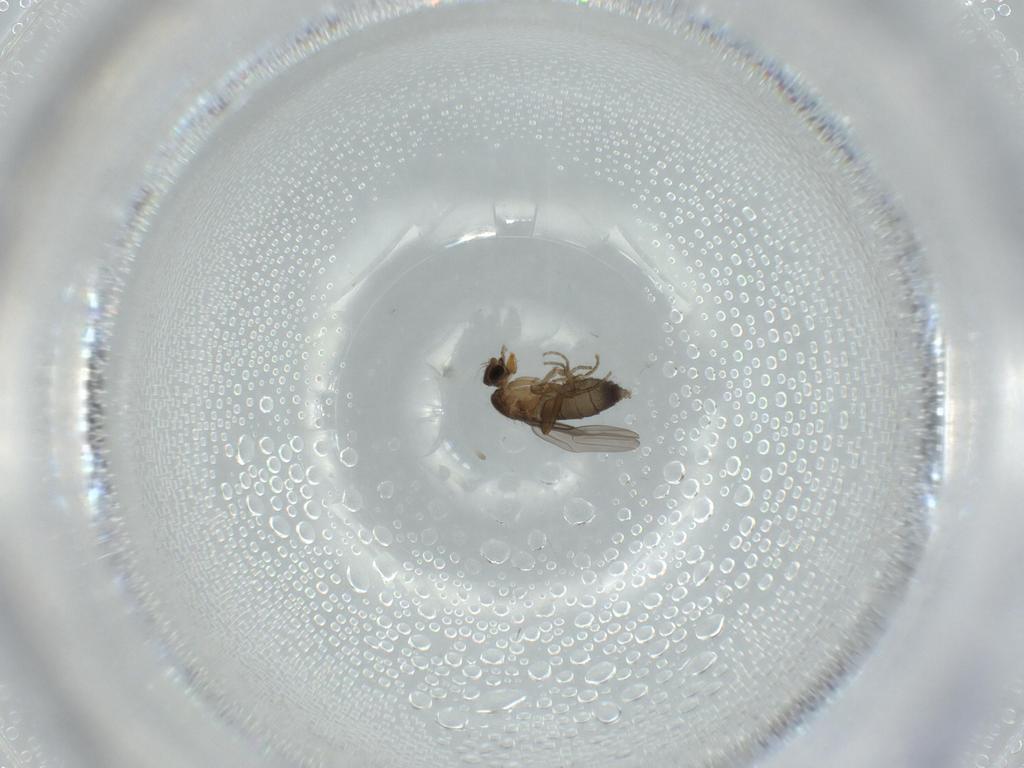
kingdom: Animalia
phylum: Arthropoda
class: Insecta
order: Diptera
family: Phoridae
